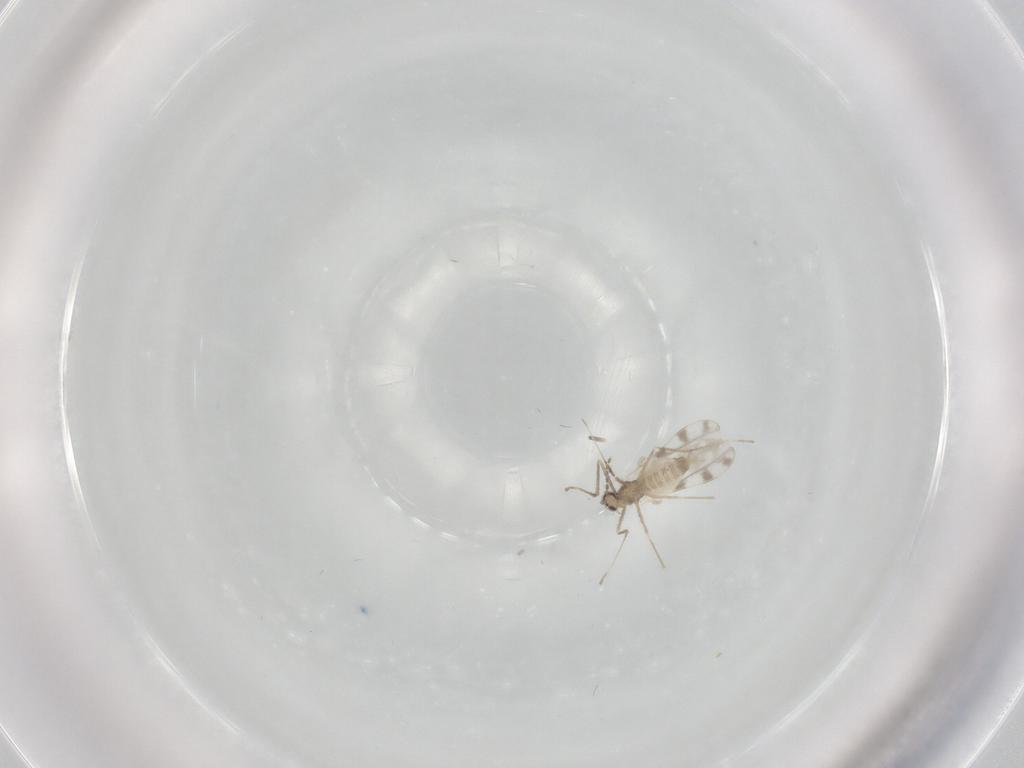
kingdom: Animalia
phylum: Arthropoda
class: Insecta
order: Diptera
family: Cecidomyiidae
